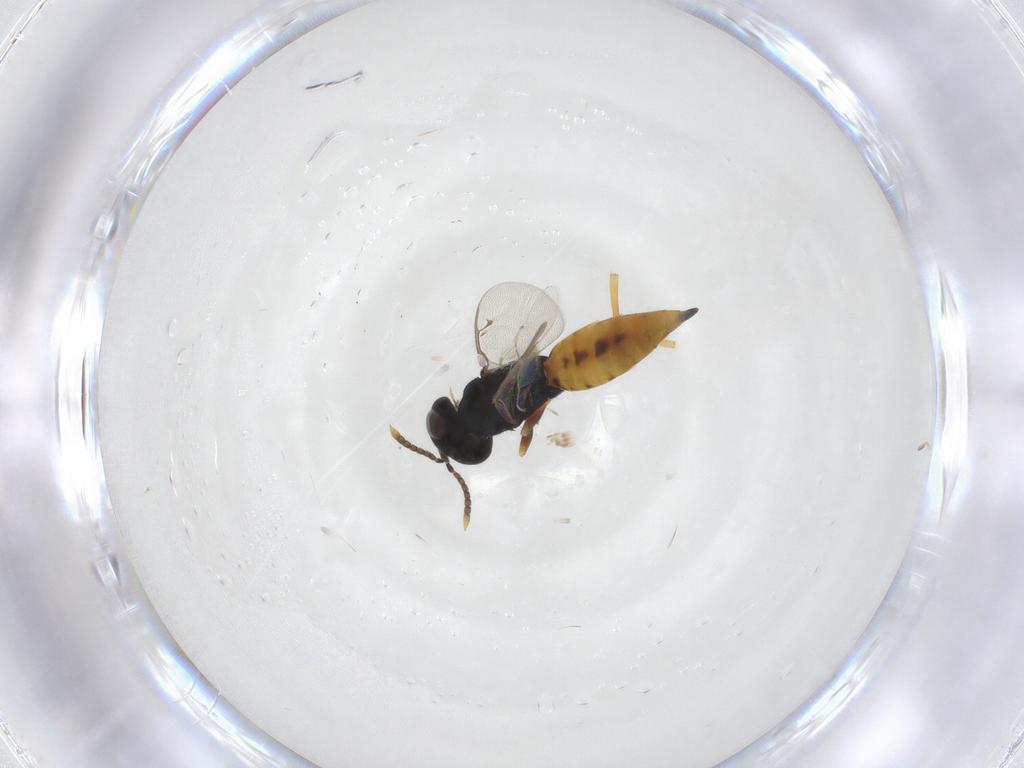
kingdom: Animalia
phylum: Arthropoda
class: Insecta
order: Hymenoptera
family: Pteromalidae
